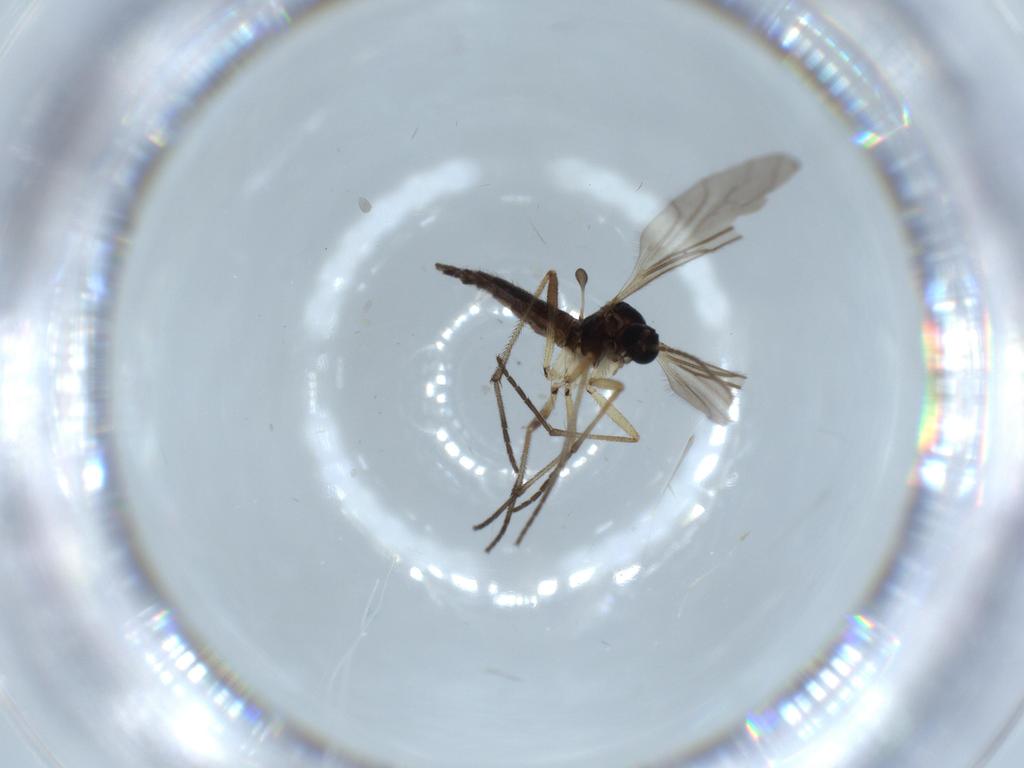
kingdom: Animalia
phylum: Arthropoda
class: Insecta
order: Diptera
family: Sciaridae
